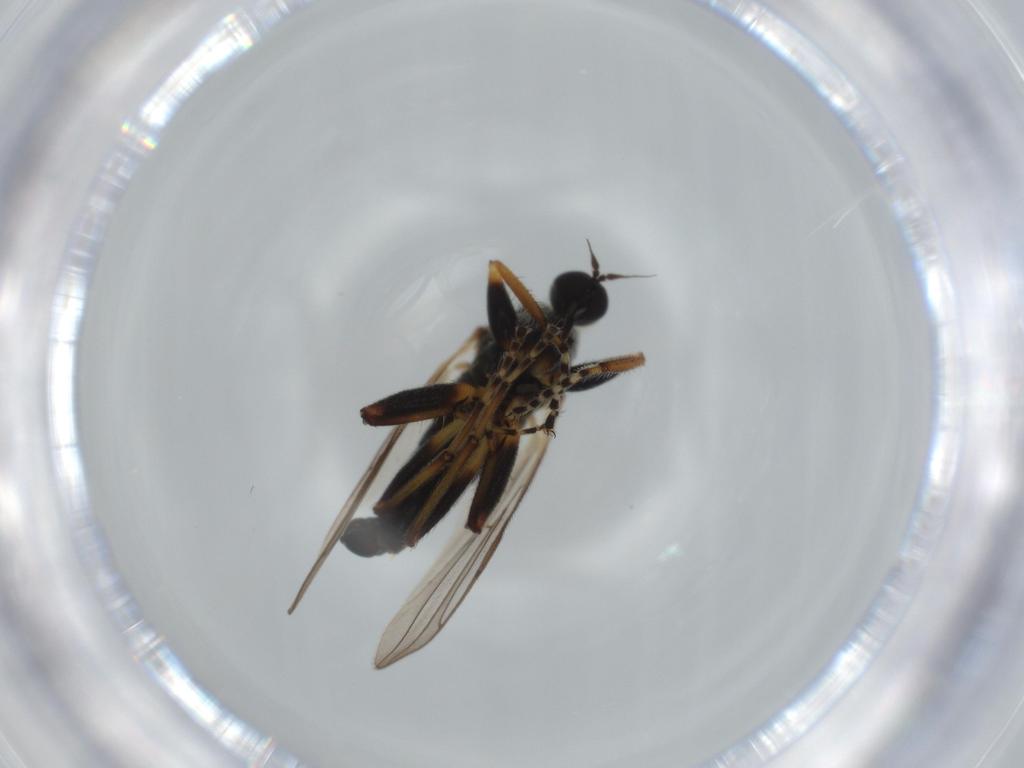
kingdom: Animalia
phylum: Arthropoda
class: Insecta
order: Diptera
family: Hybotidae
